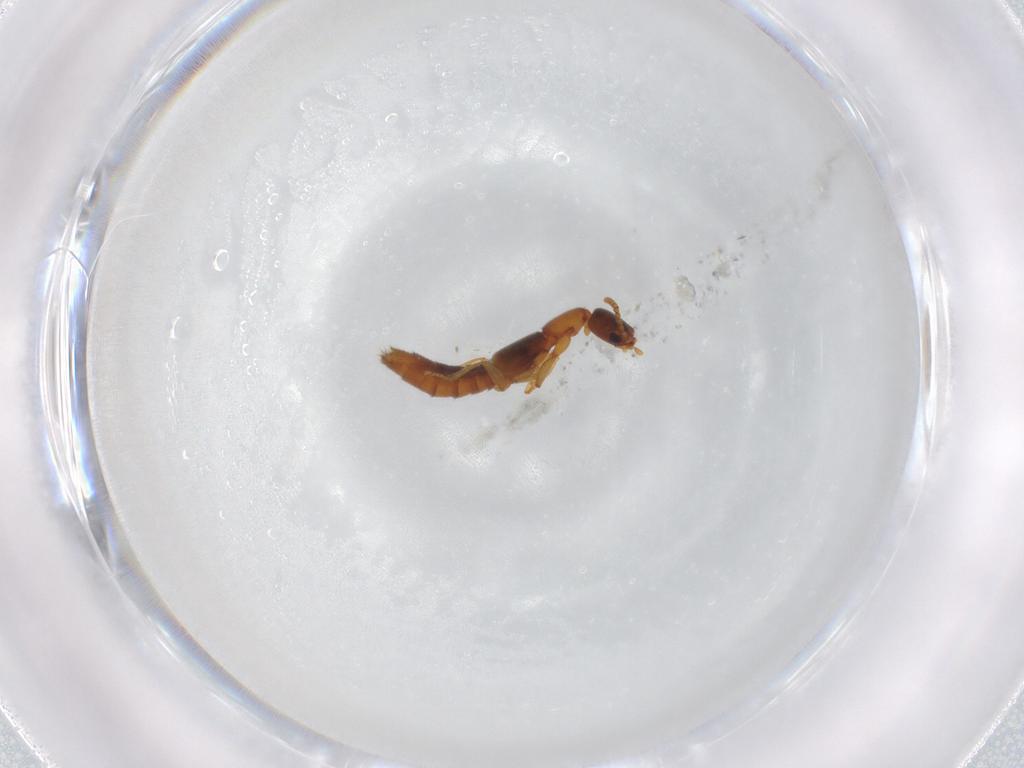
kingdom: Animalia
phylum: Arthropoda
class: Insecta
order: Coleoptera
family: Staphylinidae
